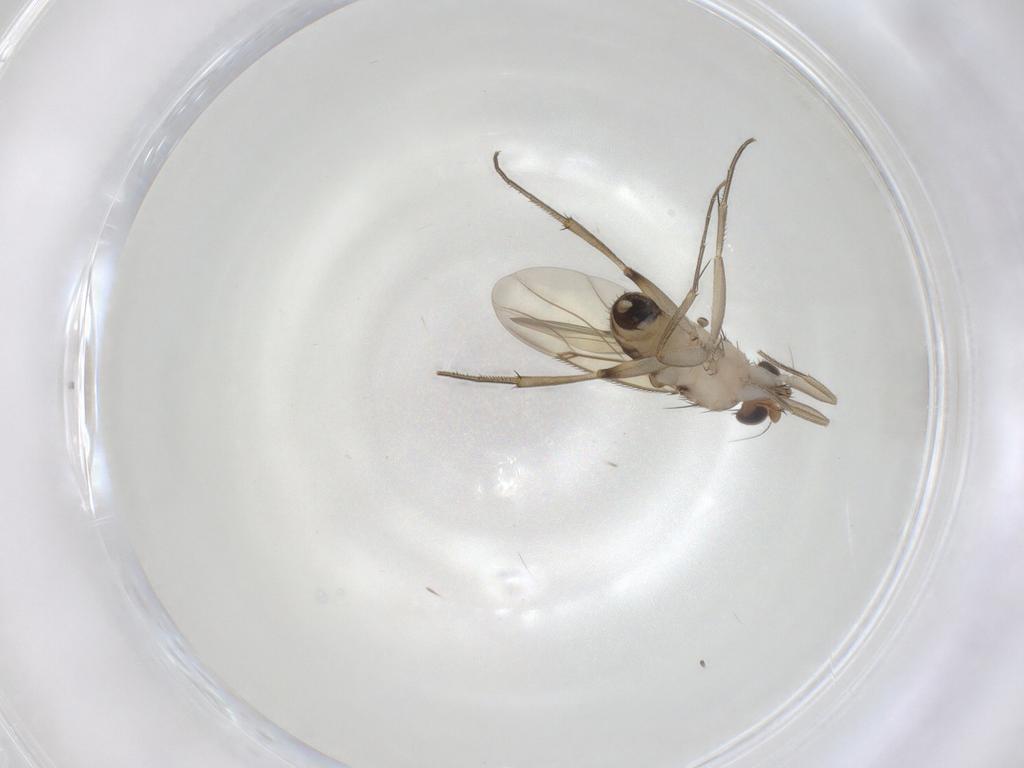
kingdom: Animalia
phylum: Arthropoda
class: Insecta
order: Diptera
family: Phoridae
